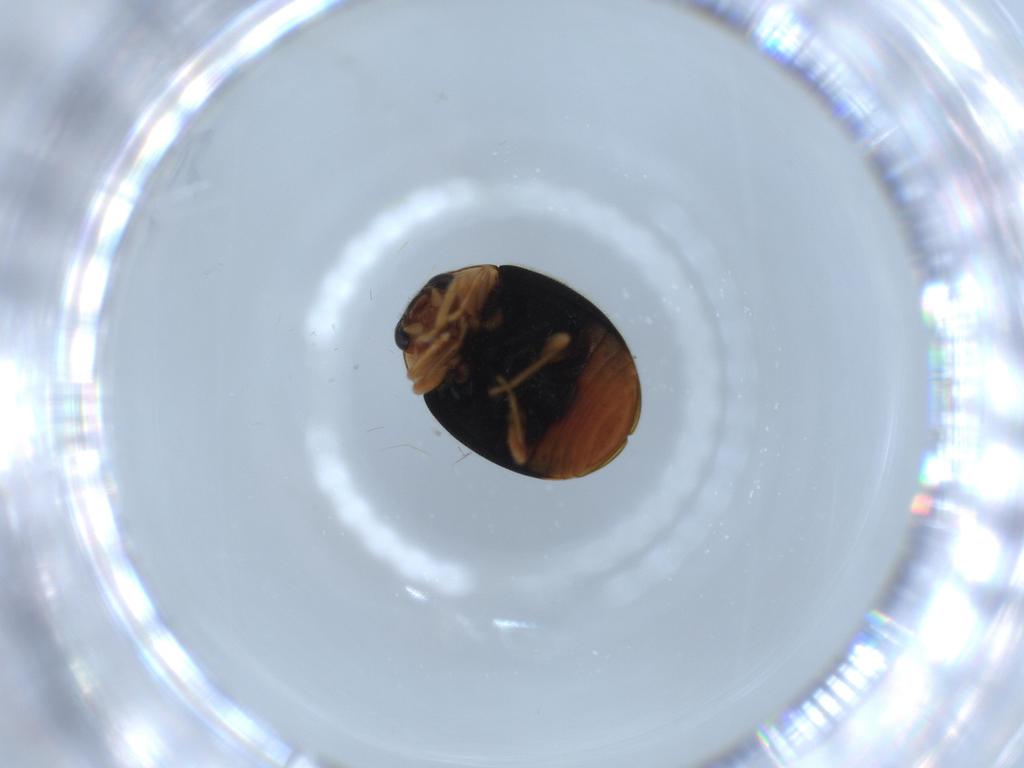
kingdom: Animalia
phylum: Arthropoda
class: Insecta
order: Coleoptera
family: Coccinellidae
